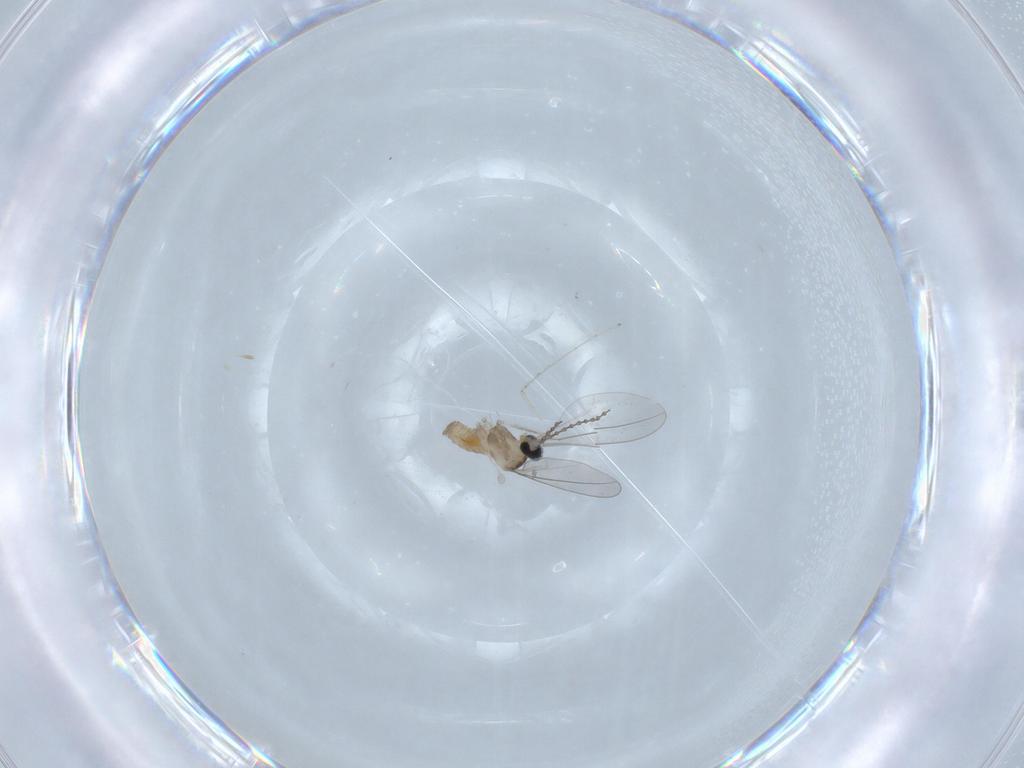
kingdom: Animalia
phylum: Arthropoda
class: Insecta
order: Diptera
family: Cecidomyiidae
